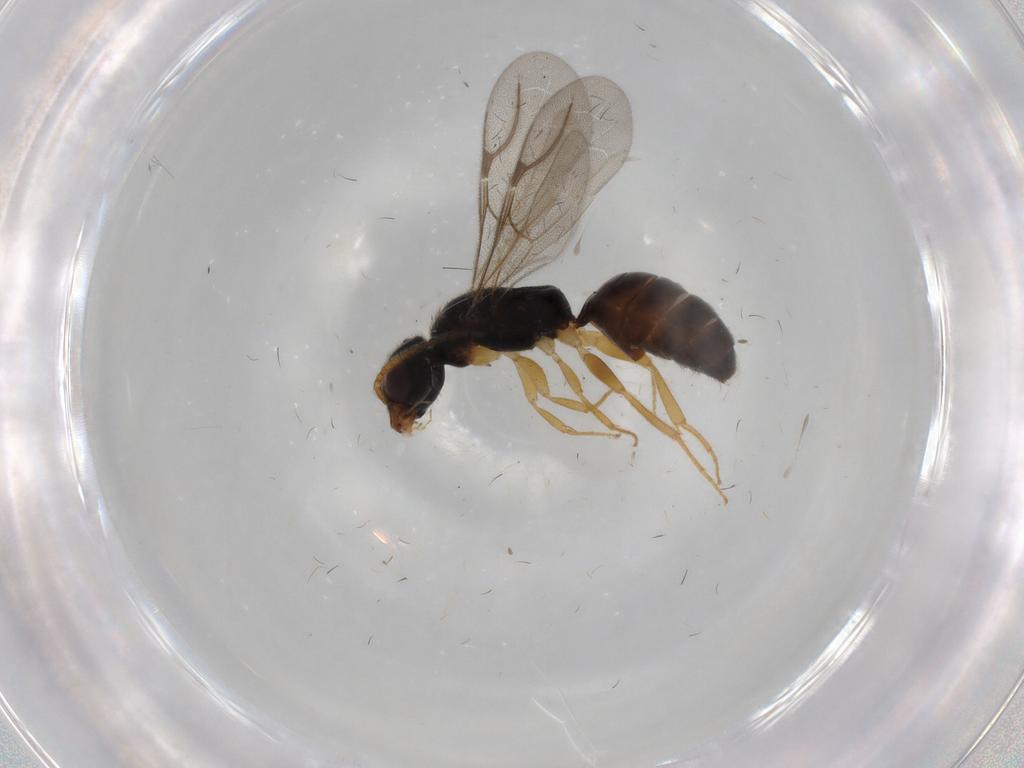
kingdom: Animalia
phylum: Arthropoda
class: Insecta
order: Hymenoptera
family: Bethylidae
